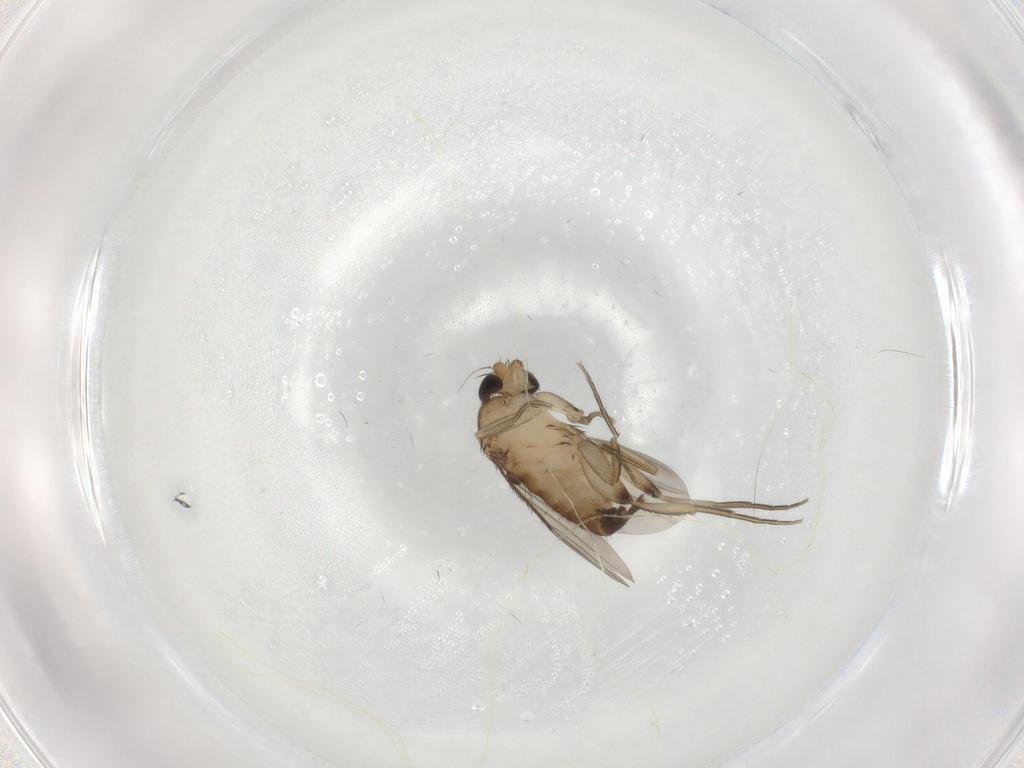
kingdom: Animalia
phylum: Arthropoda
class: Insecta
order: Diptera
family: Phoridae
